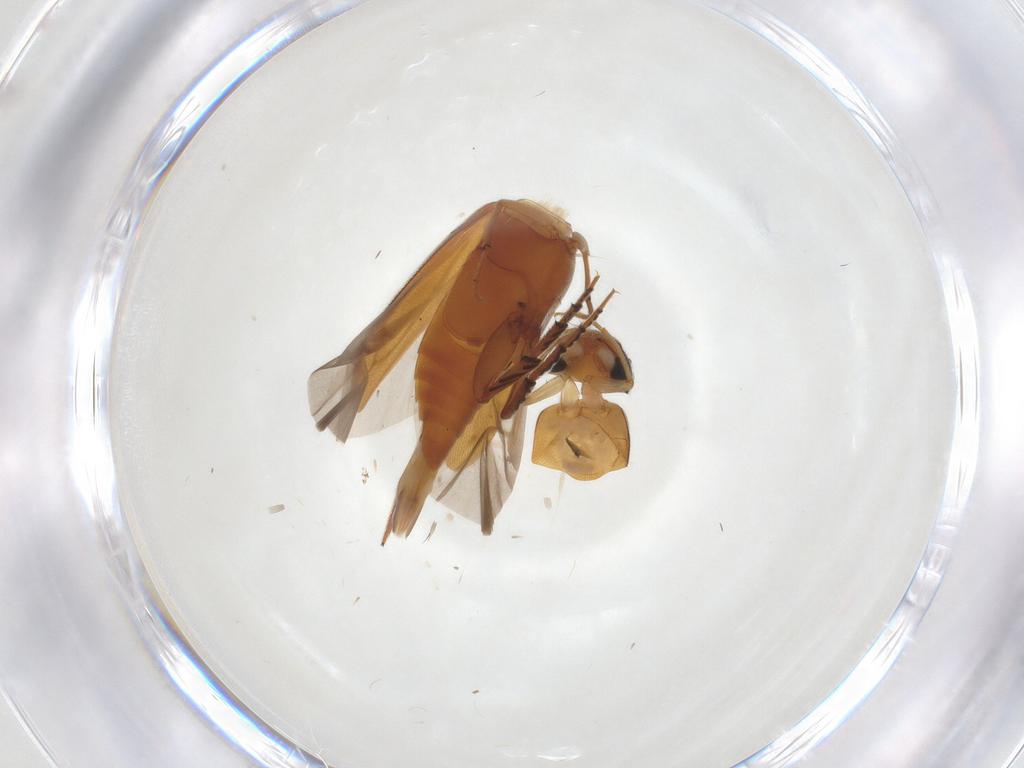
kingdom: Animalia
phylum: Arthropoda
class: Insecta
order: Coleoptera
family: Mordellidae
